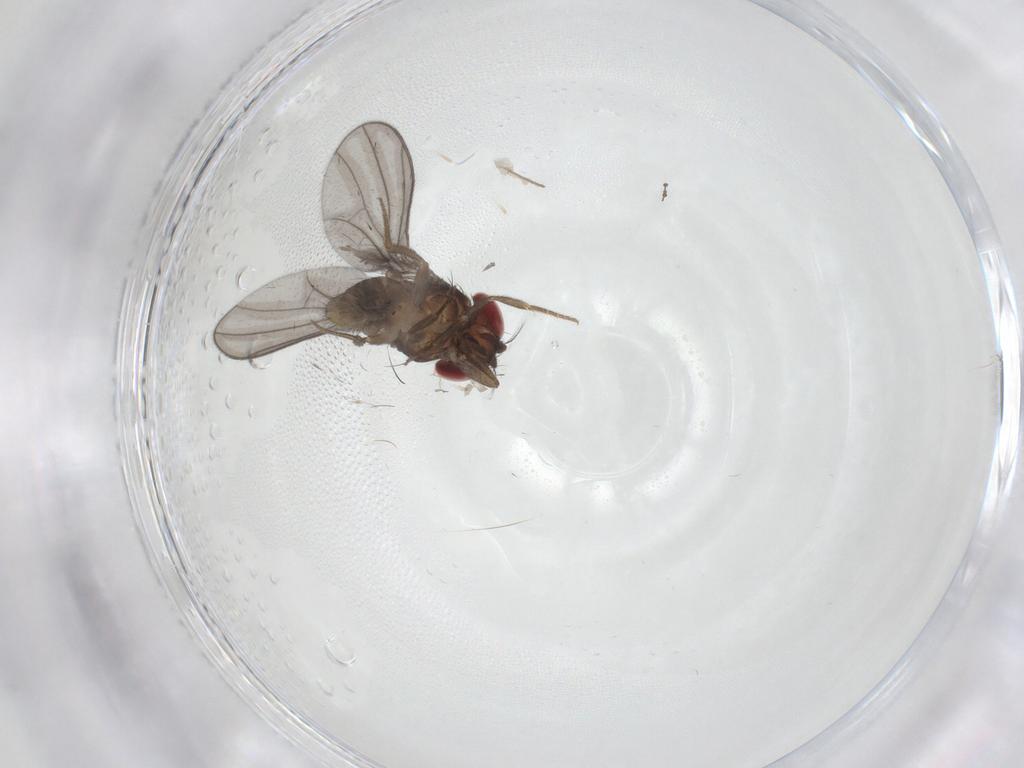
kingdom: Animalia
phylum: Arthropoda
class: Insecta
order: Diptera
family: Drosophilidae
